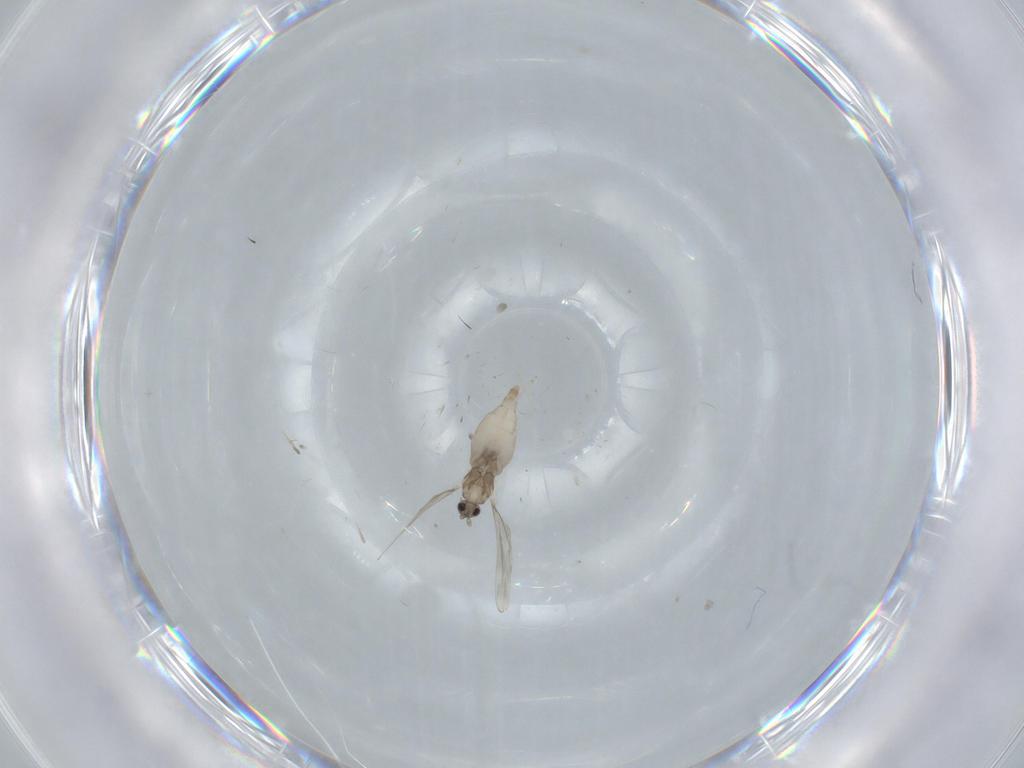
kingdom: Animalia
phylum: Arthropoda
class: Insecta
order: Diptera
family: Cecidomyiidae
